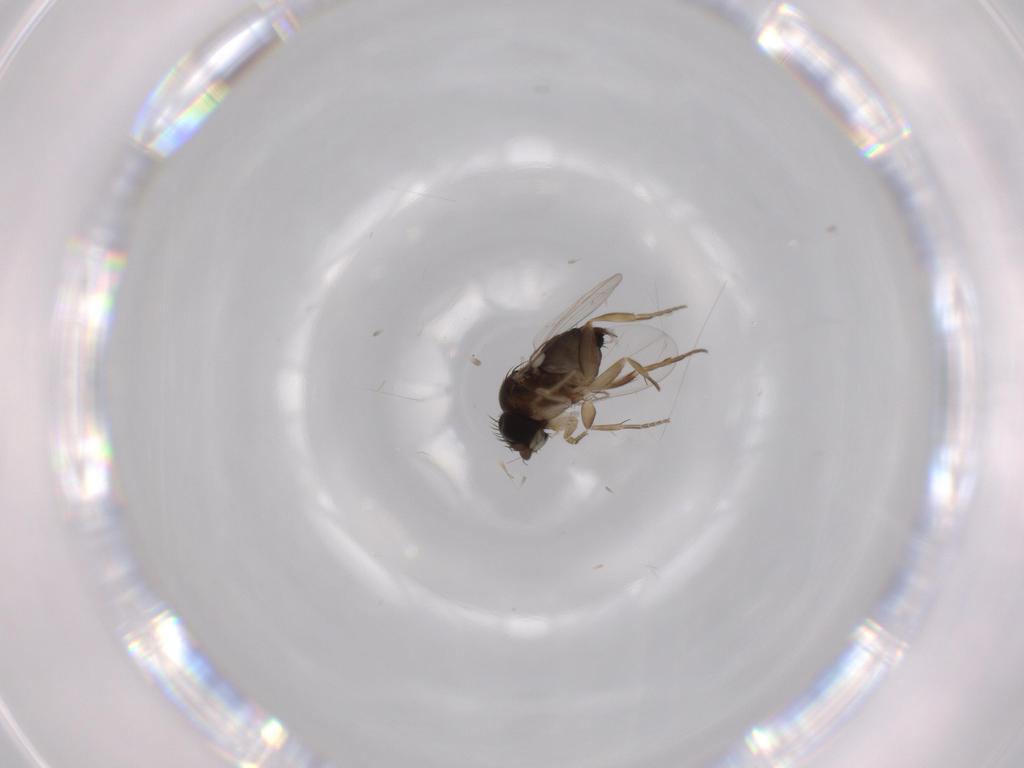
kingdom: Animalia
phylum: Arthropoda
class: Insecta
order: Diptera
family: Phoridae
